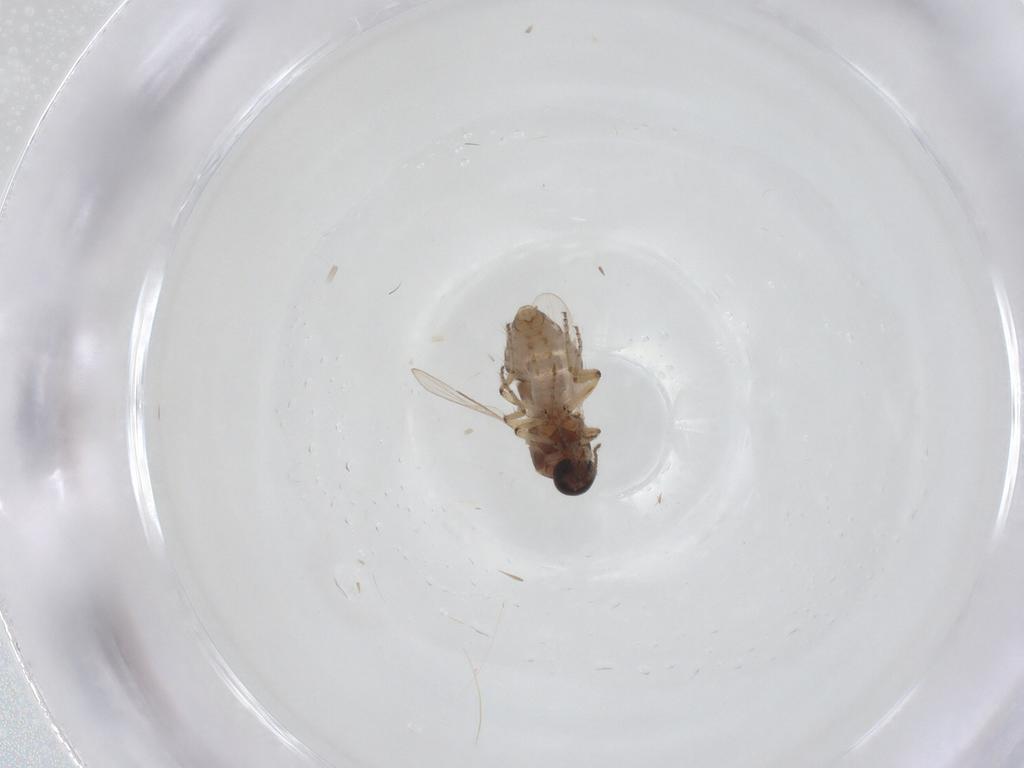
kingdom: Animalia
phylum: Arthropoda
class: Insecta
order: Diptera
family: Ceratopogonidae
